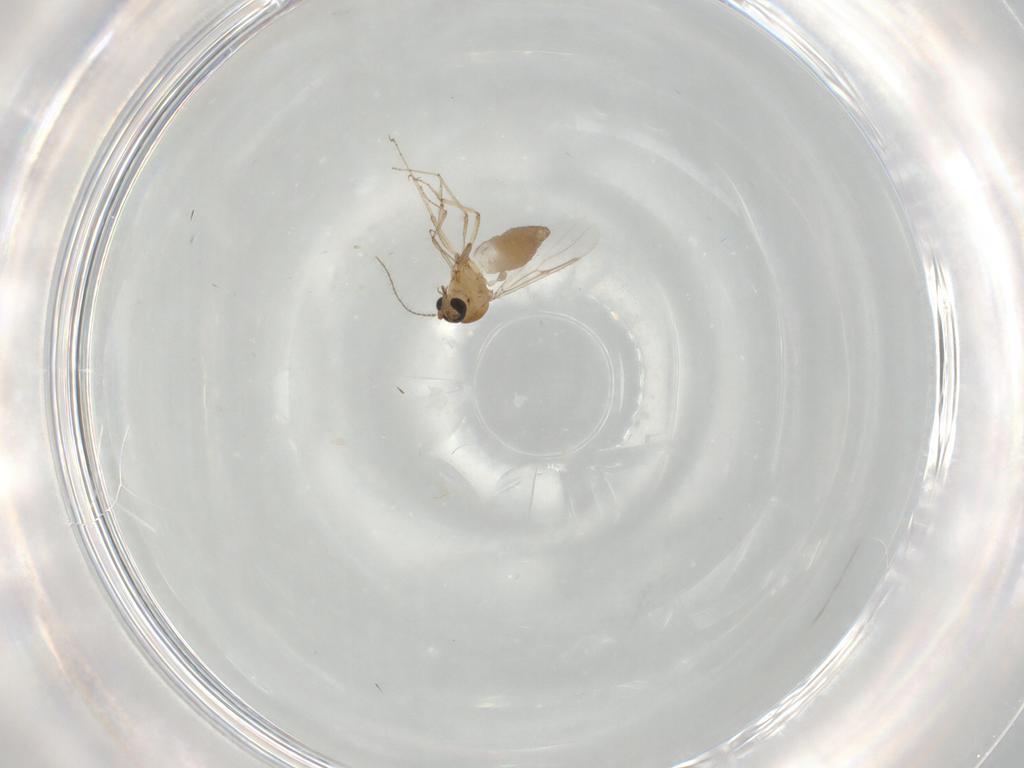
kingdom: Animalia
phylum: Arthropoda
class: Insecta
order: Diptera
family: Ceratopogonidae
